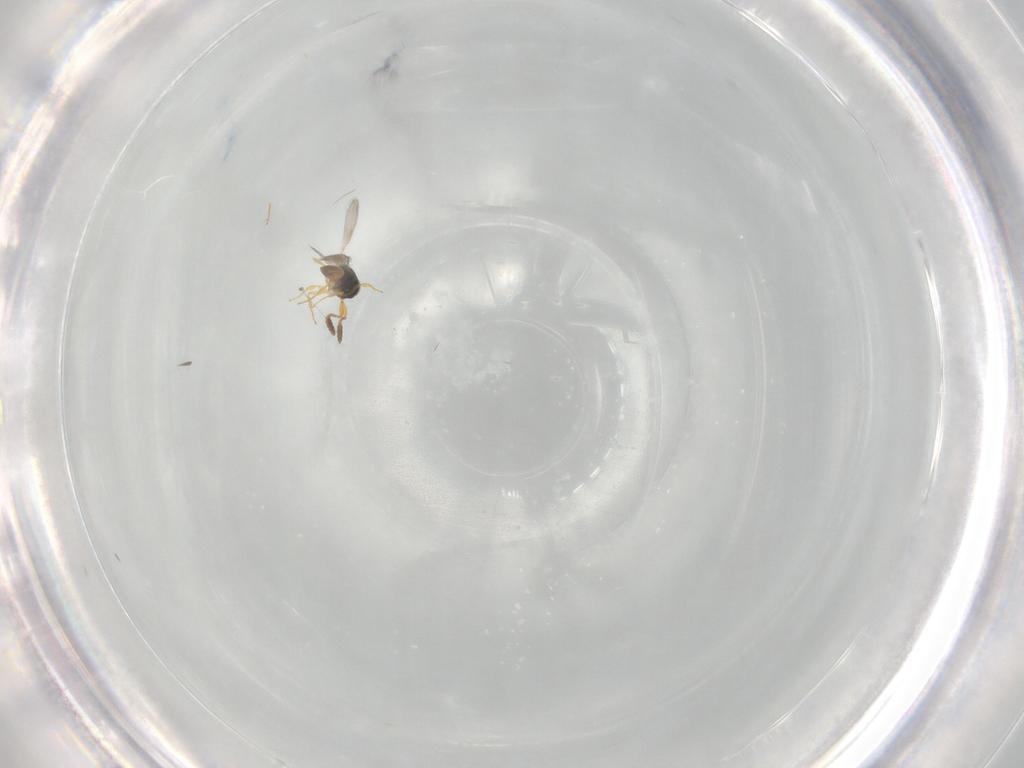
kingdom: Animalia
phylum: Arthropoda
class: Insecta
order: Hymenoptera
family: Scelionidae
